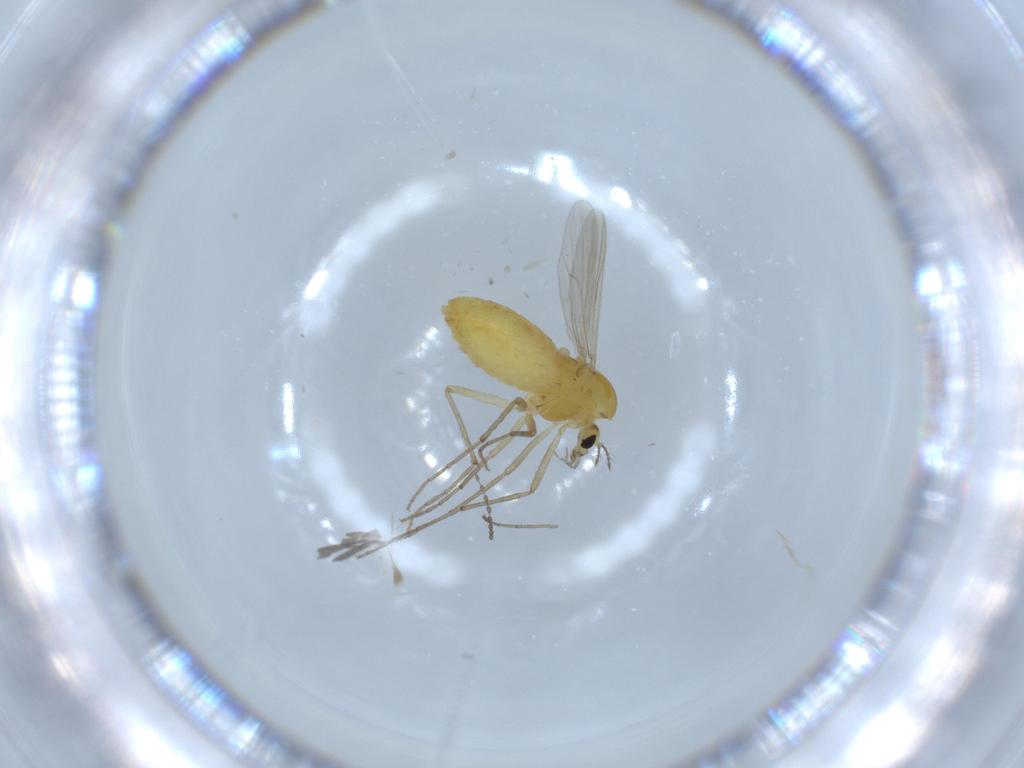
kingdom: Animalia
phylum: Arthropoda
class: Insecta
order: Diptera
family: Chironomidae
